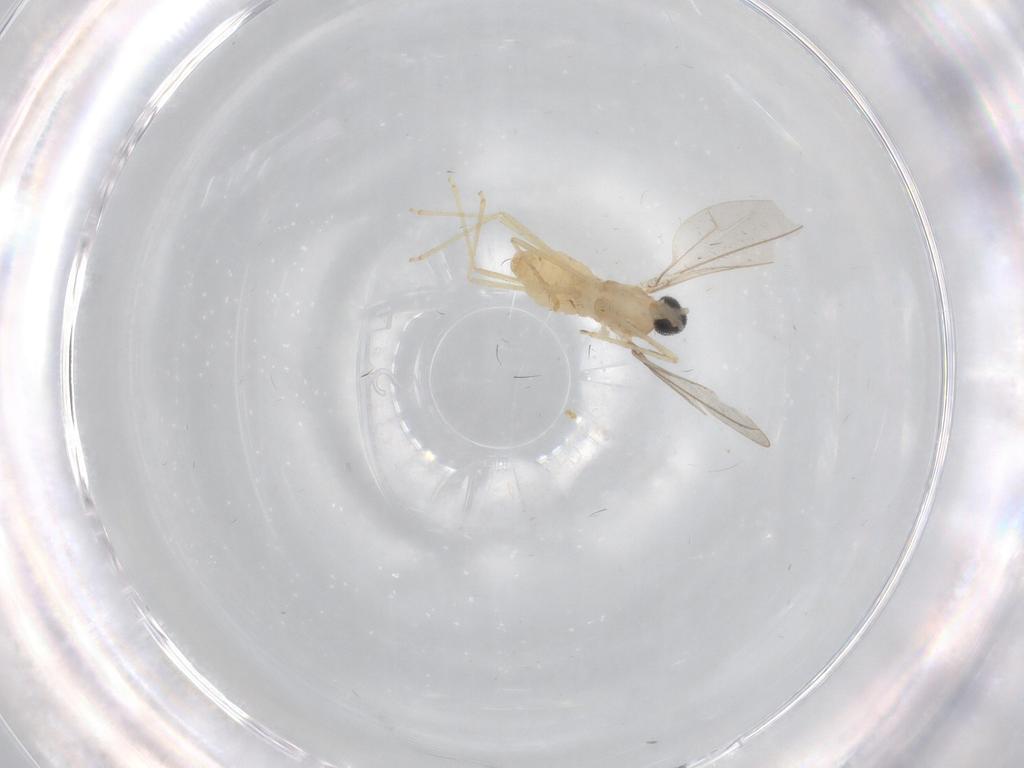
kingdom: Animalia
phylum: Arthropoda
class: Insecta
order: Diptera
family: Cecidomyiidae
